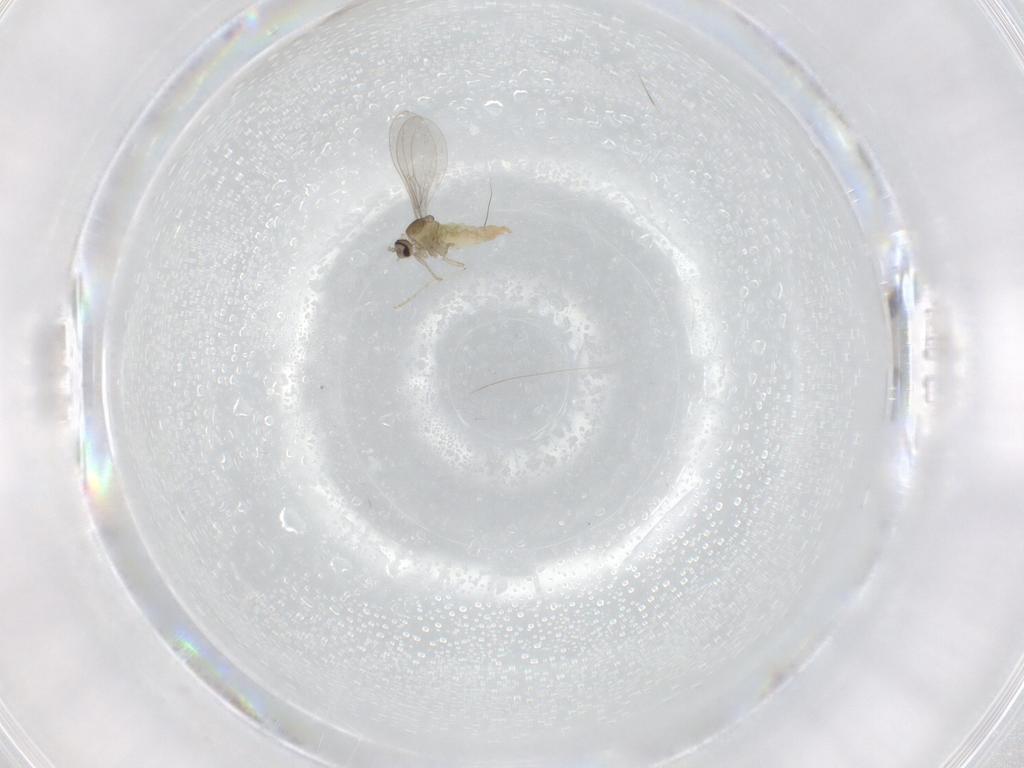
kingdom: Animalia
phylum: Arthropoda
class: Insecta
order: Diptera
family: Cecidomyiidae
